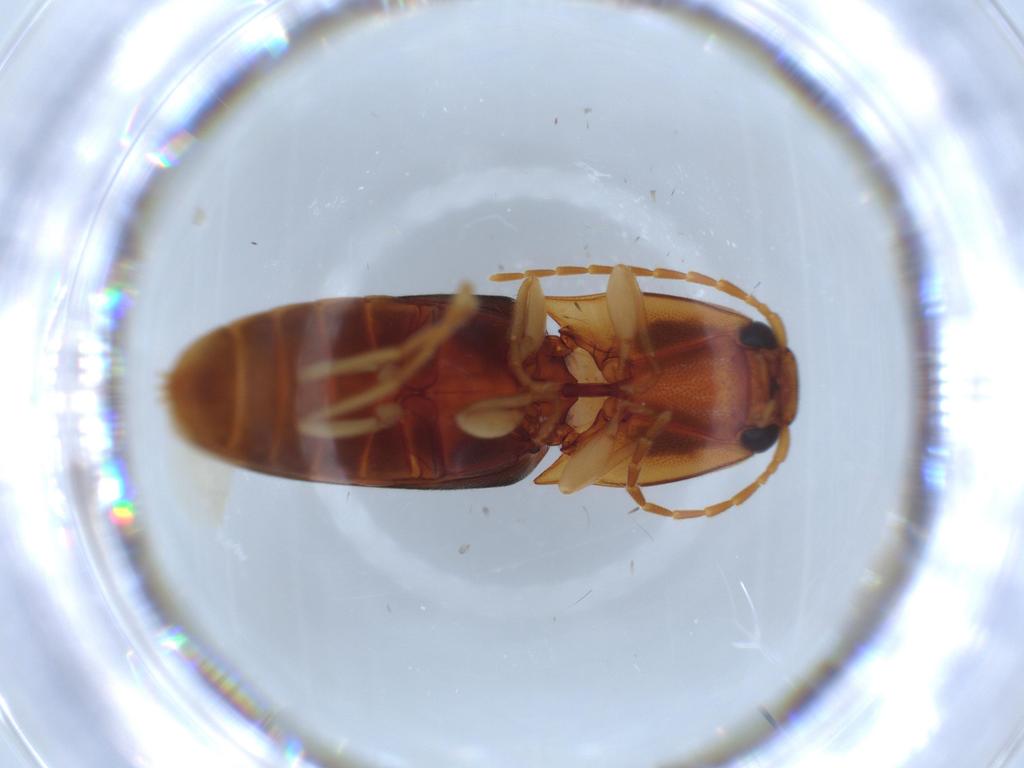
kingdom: Animalia
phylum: Arthropoda
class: Insecta
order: Coleoptera
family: Elateridae
